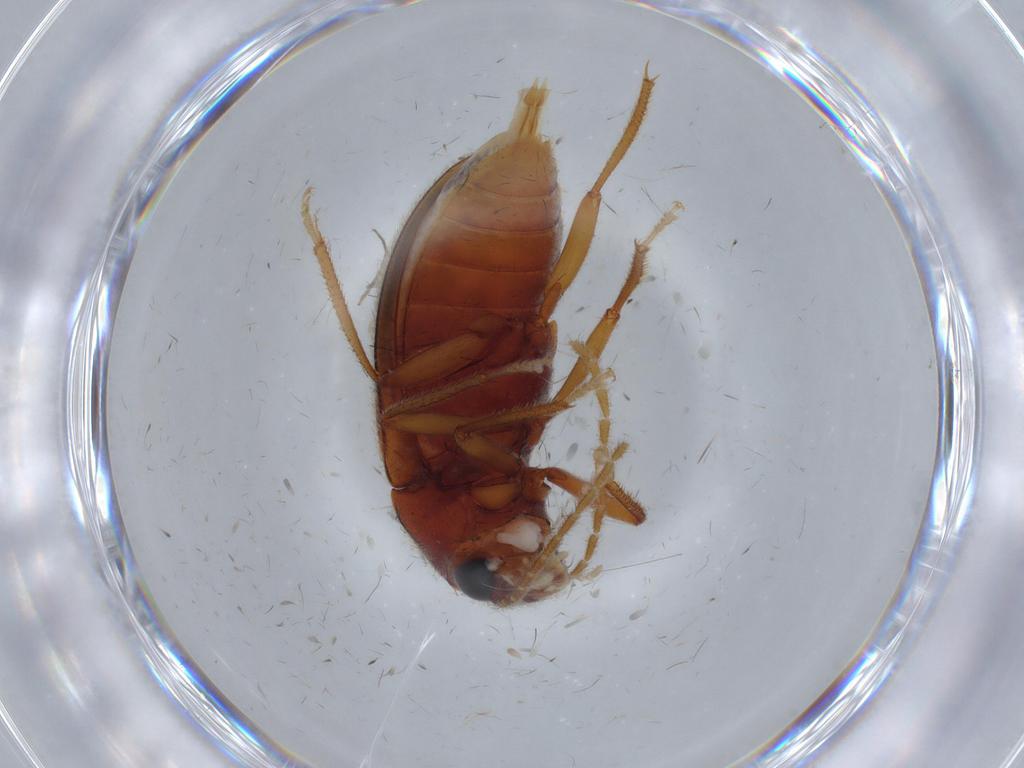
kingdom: Animalia
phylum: Arthropoda
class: Insecta
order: Coleoptera
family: Ptilodactylidae
